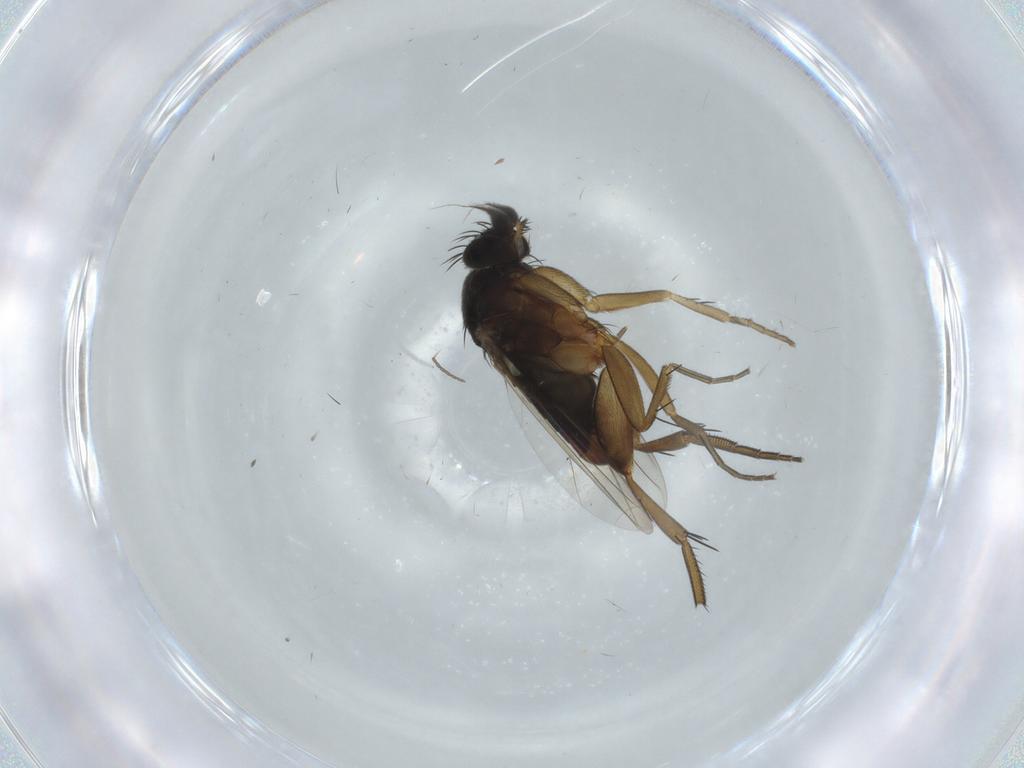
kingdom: Animalia
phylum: Arthropoda
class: Insecta
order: Diptera
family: Phoridae
